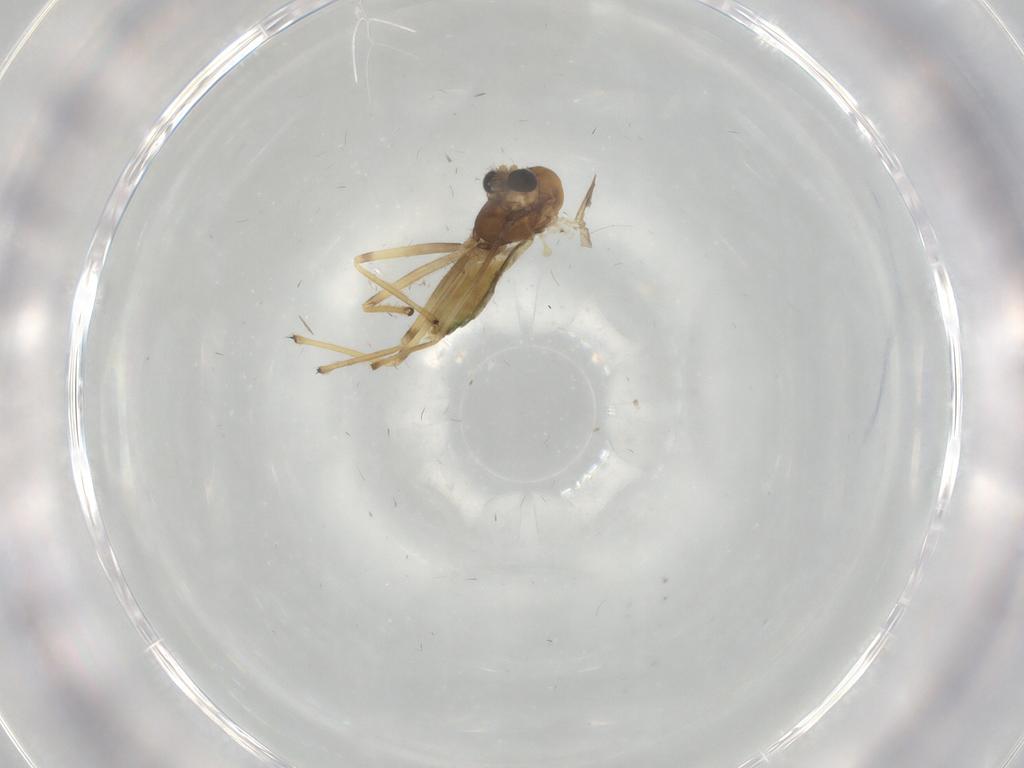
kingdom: Animalia
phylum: Arthropoda
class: Insecta
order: Diptera
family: Chironomidae
